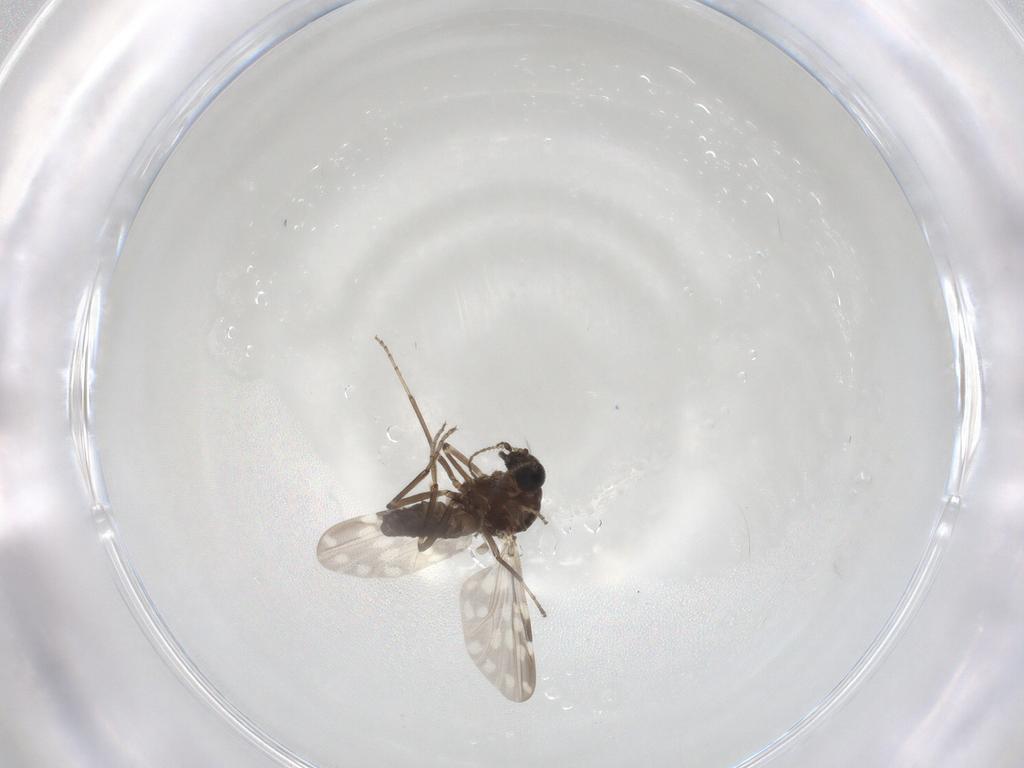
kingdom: Animalia
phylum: Arthropoda
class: Insecta
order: Diptera
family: Ceratopogonidae
